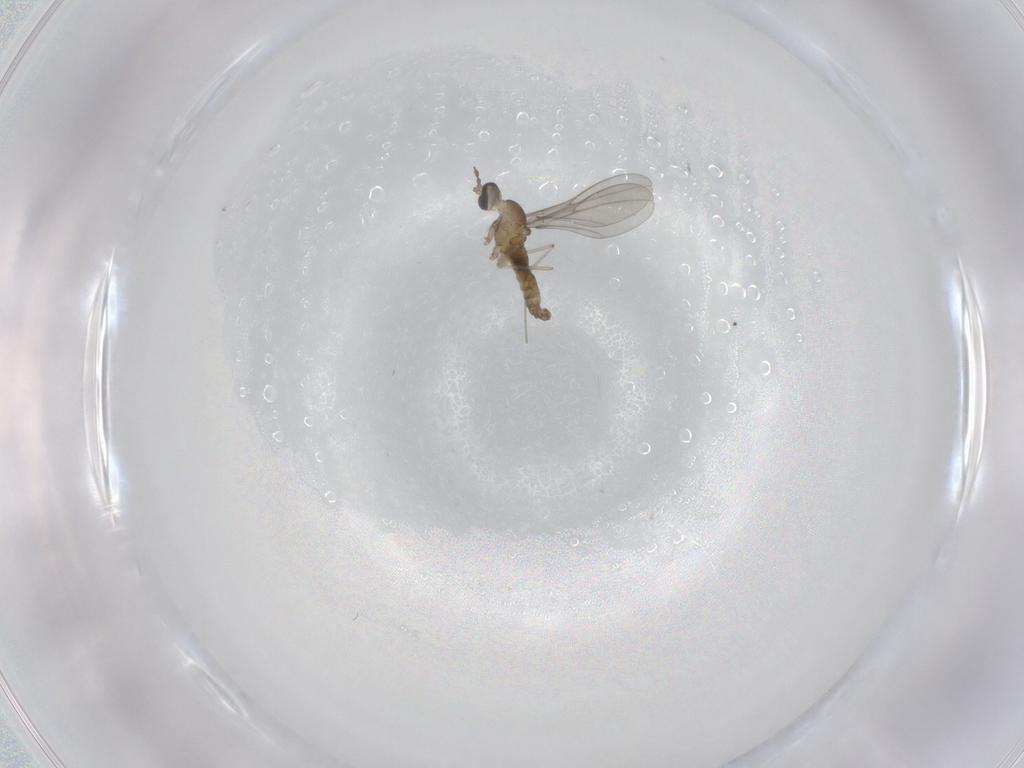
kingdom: Animalia
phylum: Arthropoda
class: Insecta
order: Diptera
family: Cecidomyiidae
